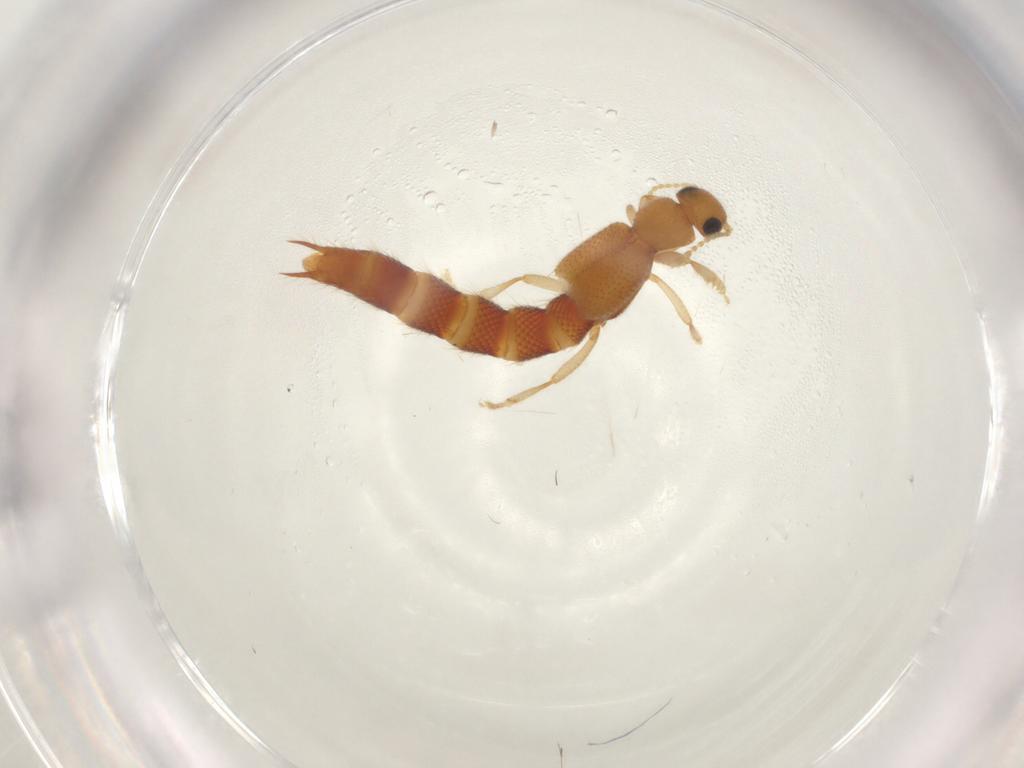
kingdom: Animalia
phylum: Arthropoda
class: Insecta
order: Coleoptera
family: Staphylinidae
